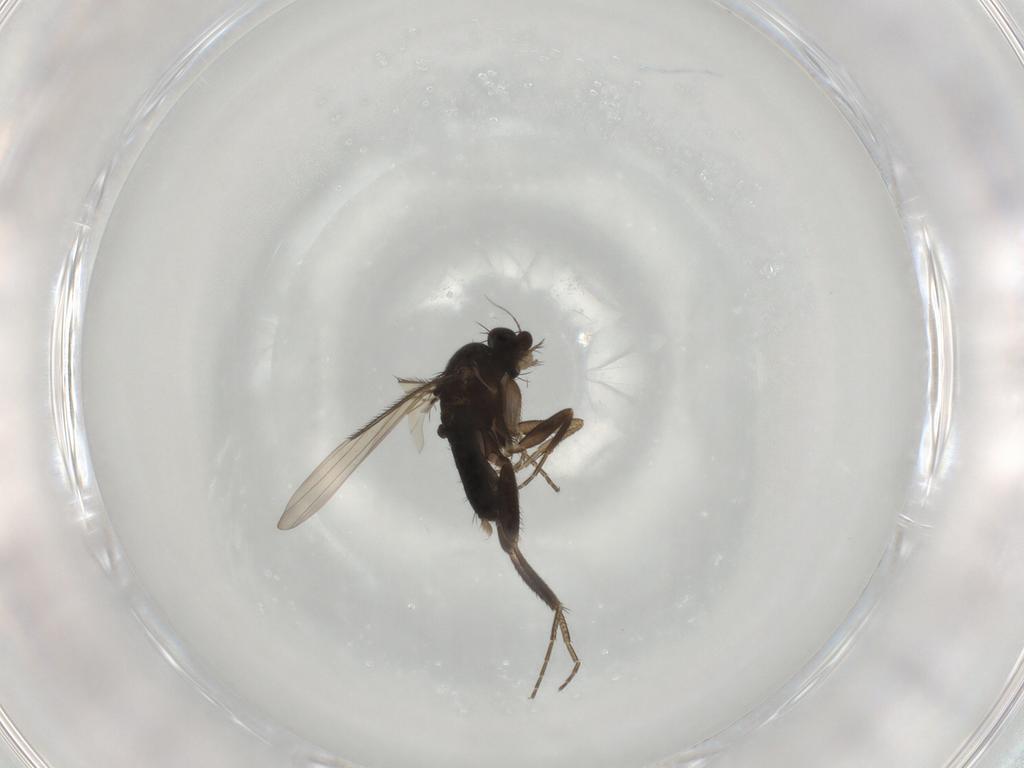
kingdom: Animalia
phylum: Arthropoda
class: Insecta
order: Diptera
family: Phoridae
